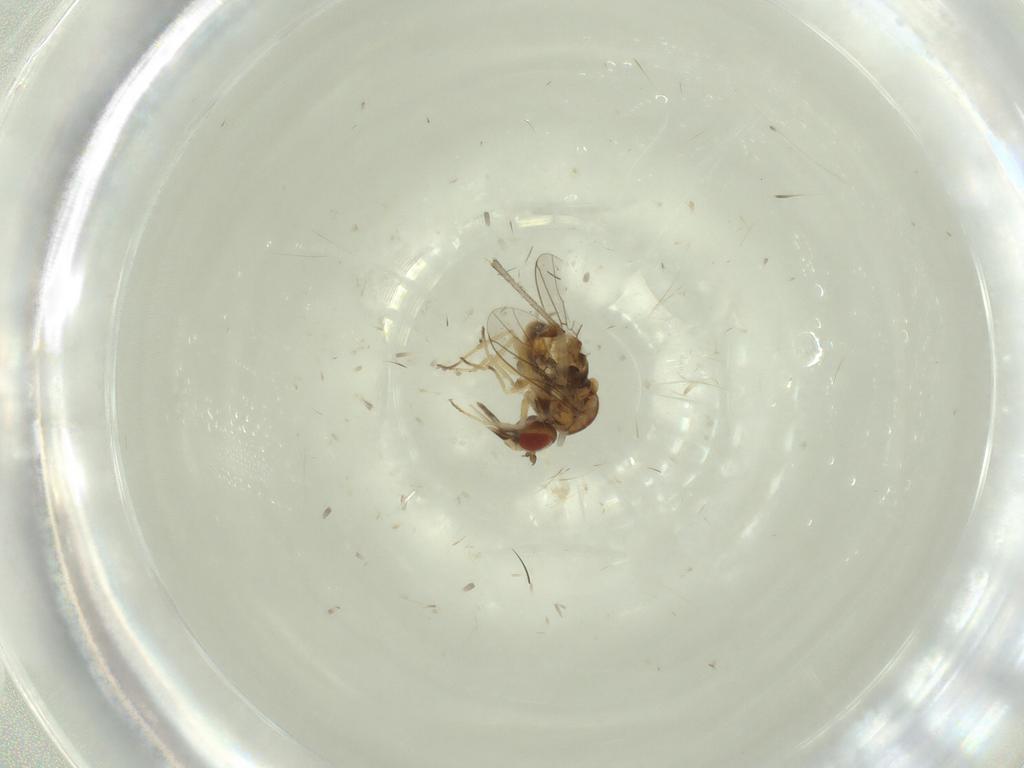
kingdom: Animalia
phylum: Arthropoda
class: Insecta
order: Diptera
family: Bombyliidae
